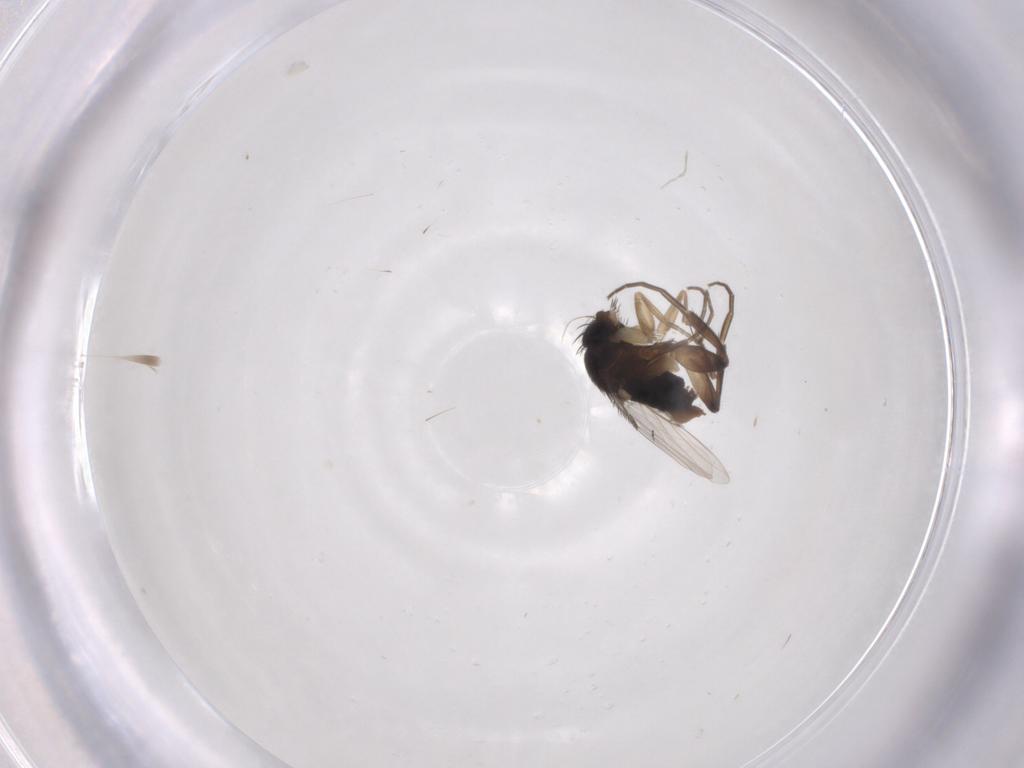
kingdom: Animalia
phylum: Arthropoda
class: Insecta
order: Diptera
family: Phoridae
